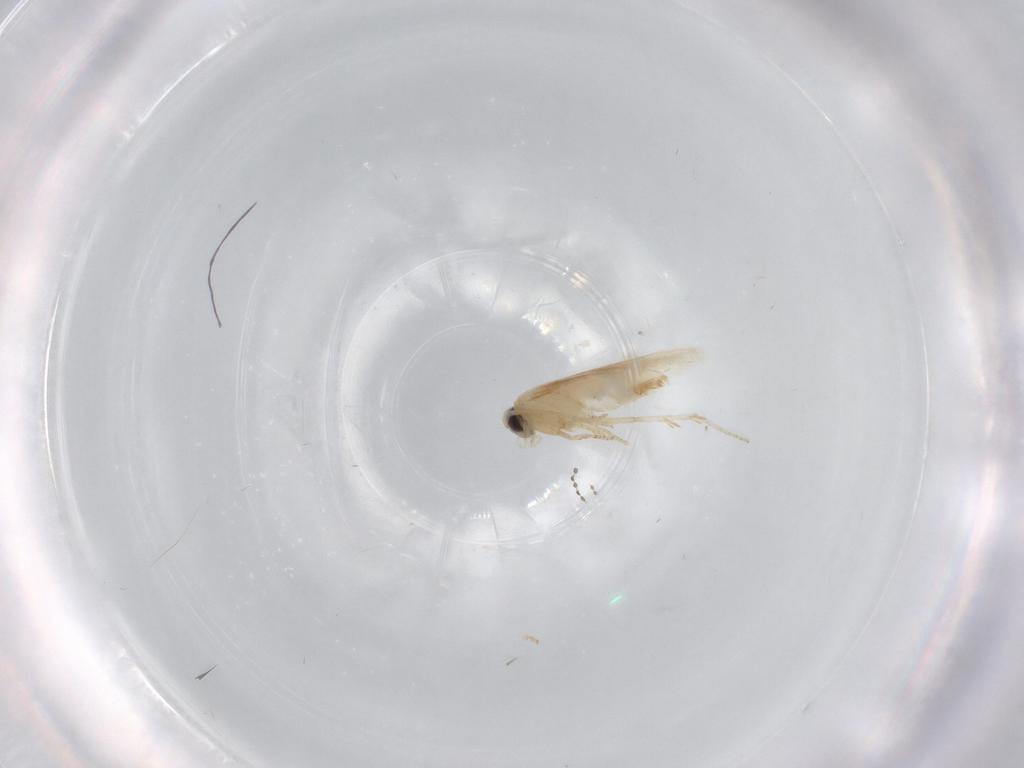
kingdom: Animalia
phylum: Arthropoda
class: Insecta
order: Lepidoptera
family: Nepticulidae
